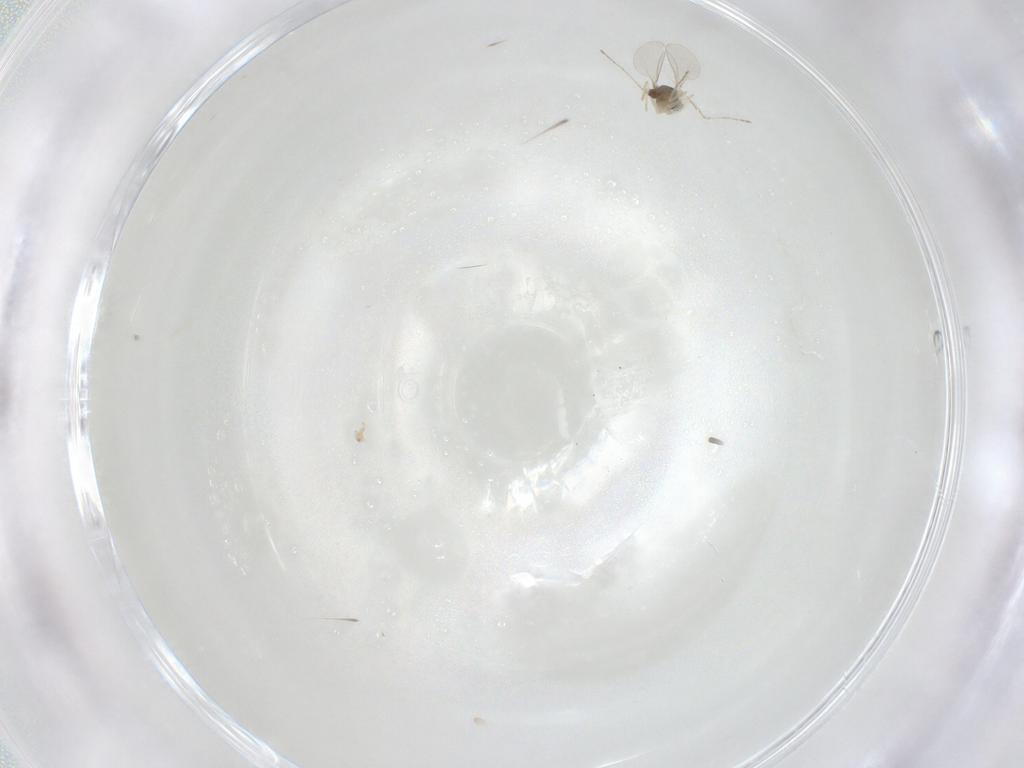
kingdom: Animalia
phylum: Arthropoda
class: Insecta
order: Diptera
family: Cecidomyiidae
